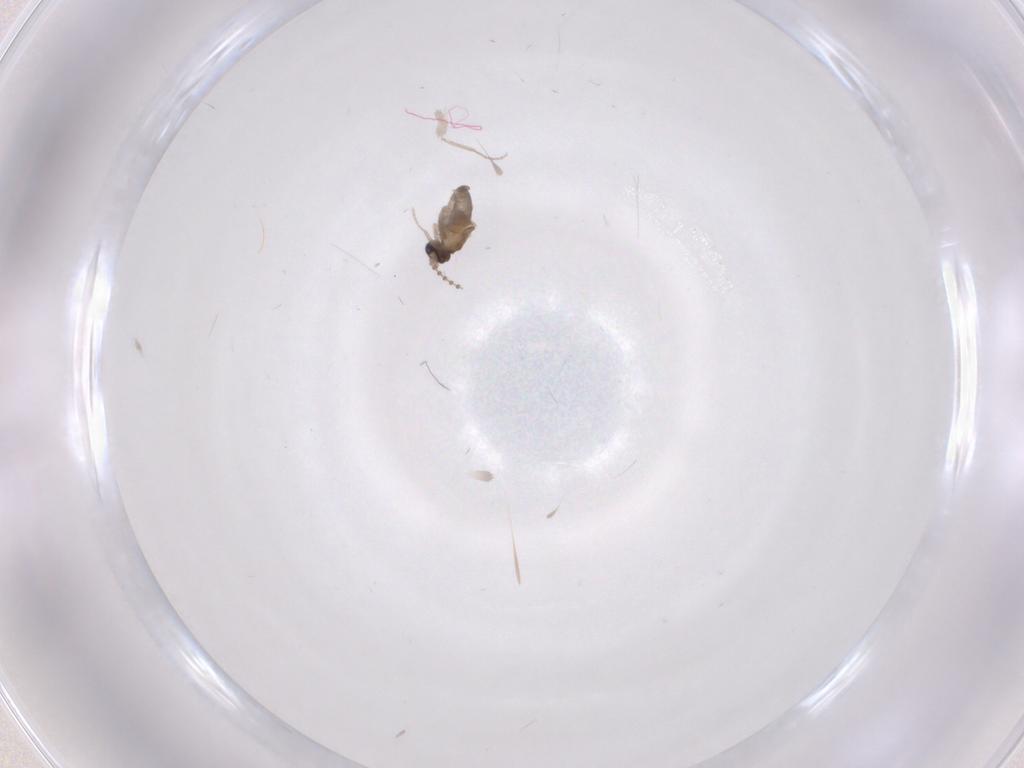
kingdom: Animalia
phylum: Arthropoda
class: Insecta
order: Diptera
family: Cecidomyiidae
